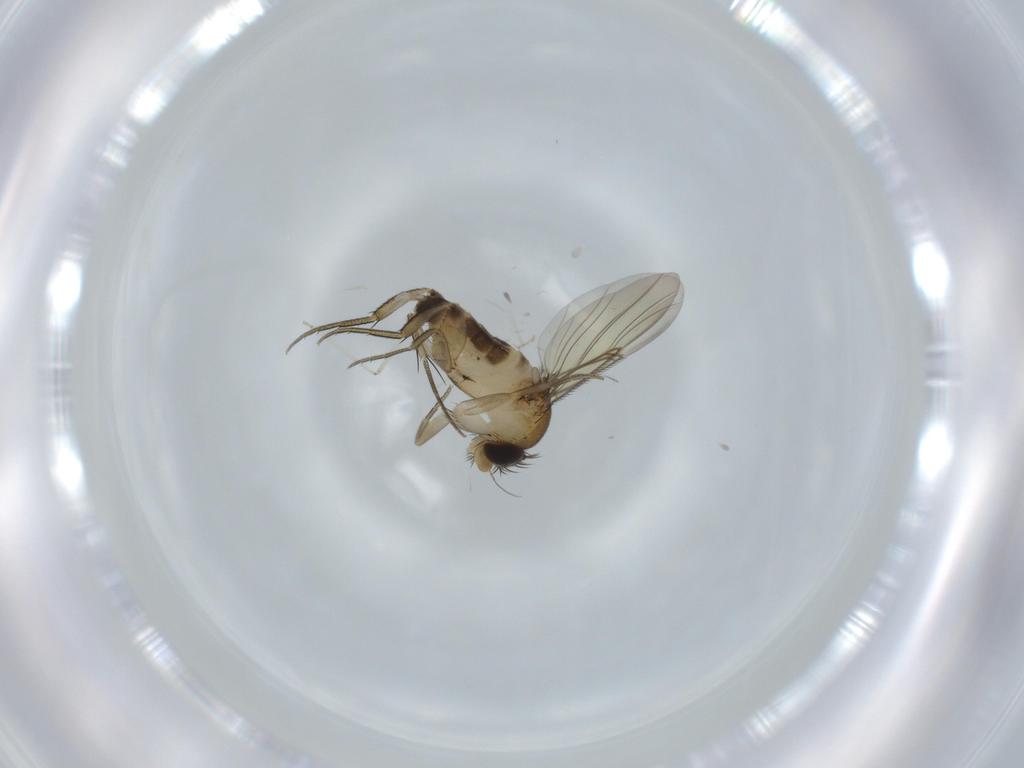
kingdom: Animalia
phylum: Arthropoda
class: Insecta
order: Diptera
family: Phoridae
